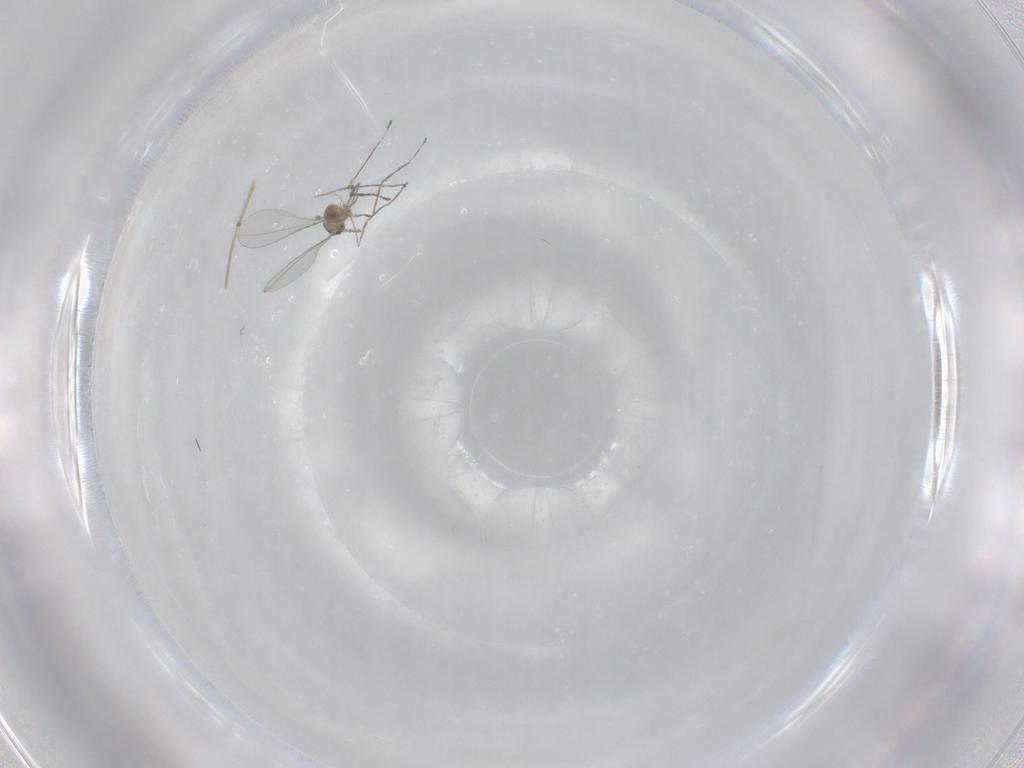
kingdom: Animalia
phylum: Arthropoda
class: Insecta
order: Diptera
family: Cecidomyiidae
